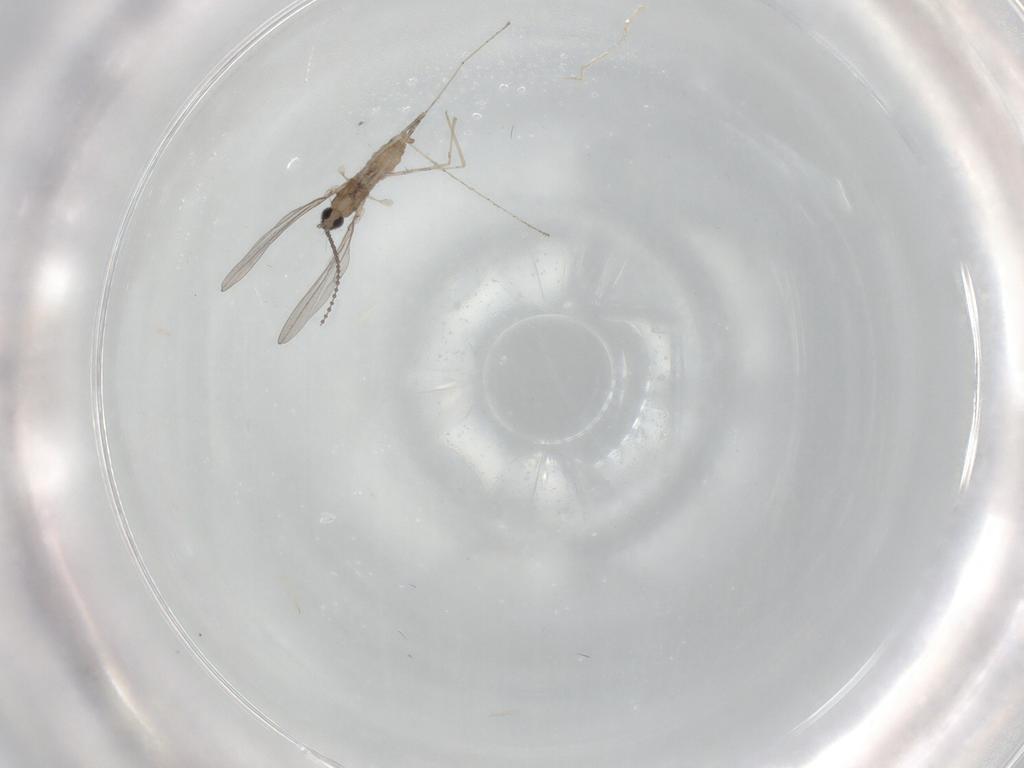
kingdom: Animalia
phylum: Arthropoda
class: Insecta
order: Diptera
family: Cecidomyiidae
